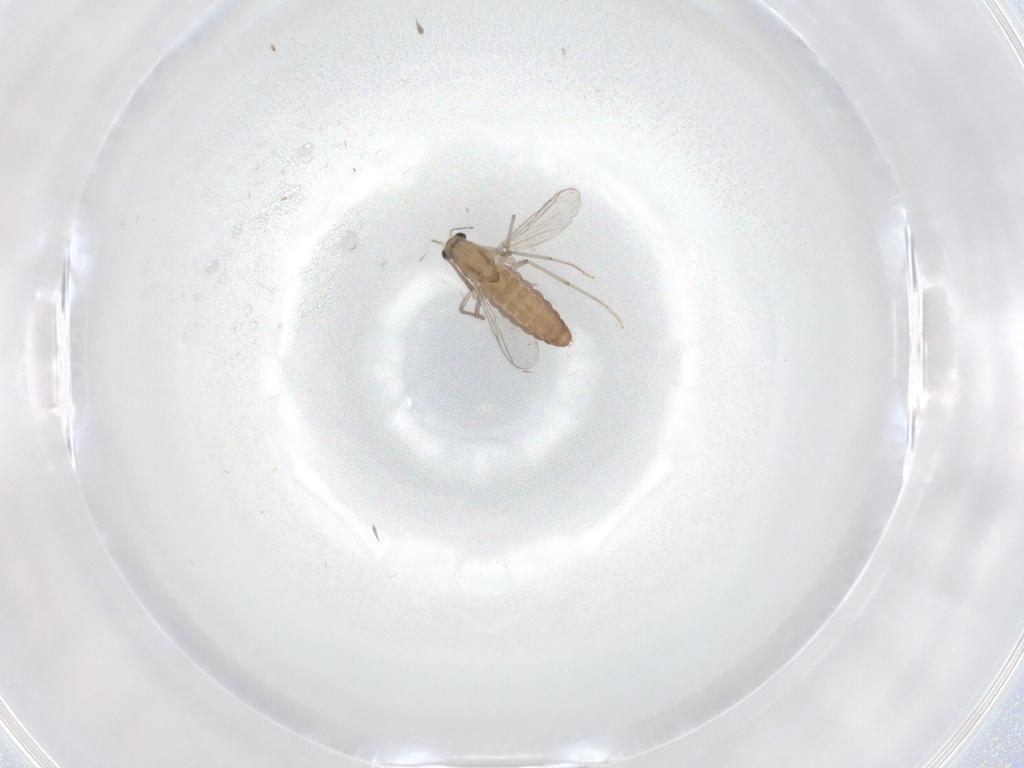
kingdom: Animalia
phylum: Arthropoda
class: Insecta
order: Diptera
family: Chironomidae
